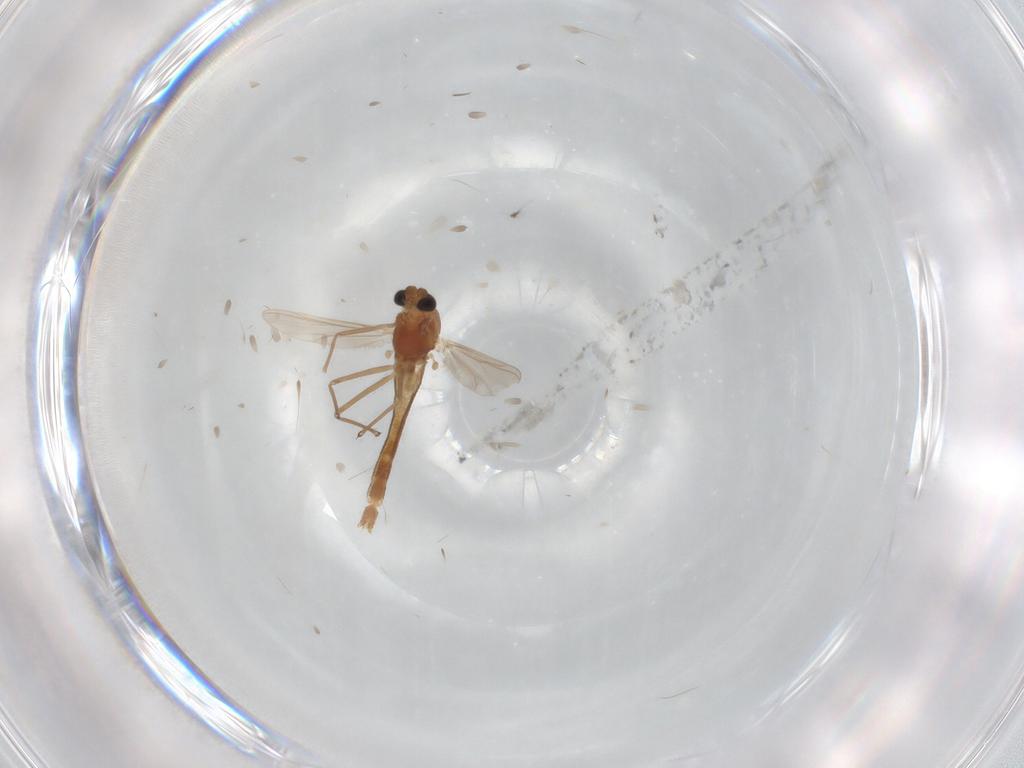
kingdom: Animalia
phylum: Arthropoda
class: Insecta
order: Diptera
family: Chironomidae
